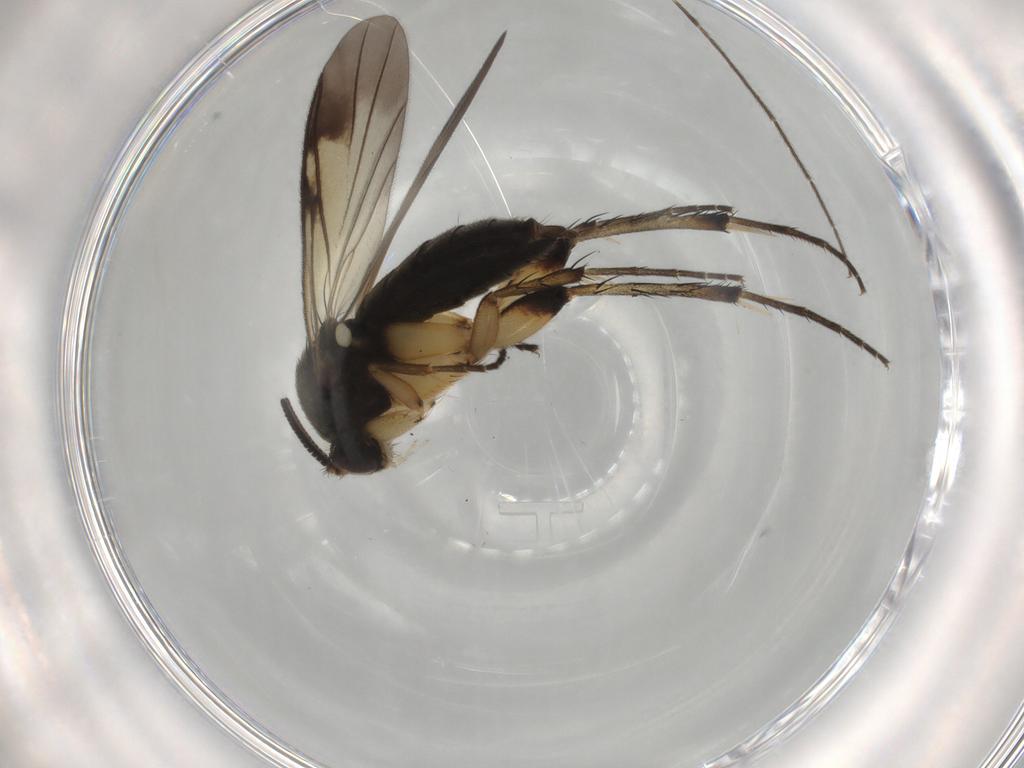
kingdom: Animalia
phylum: Arthropoda
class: Insecta
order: Diptera
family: Mycetophilidae
